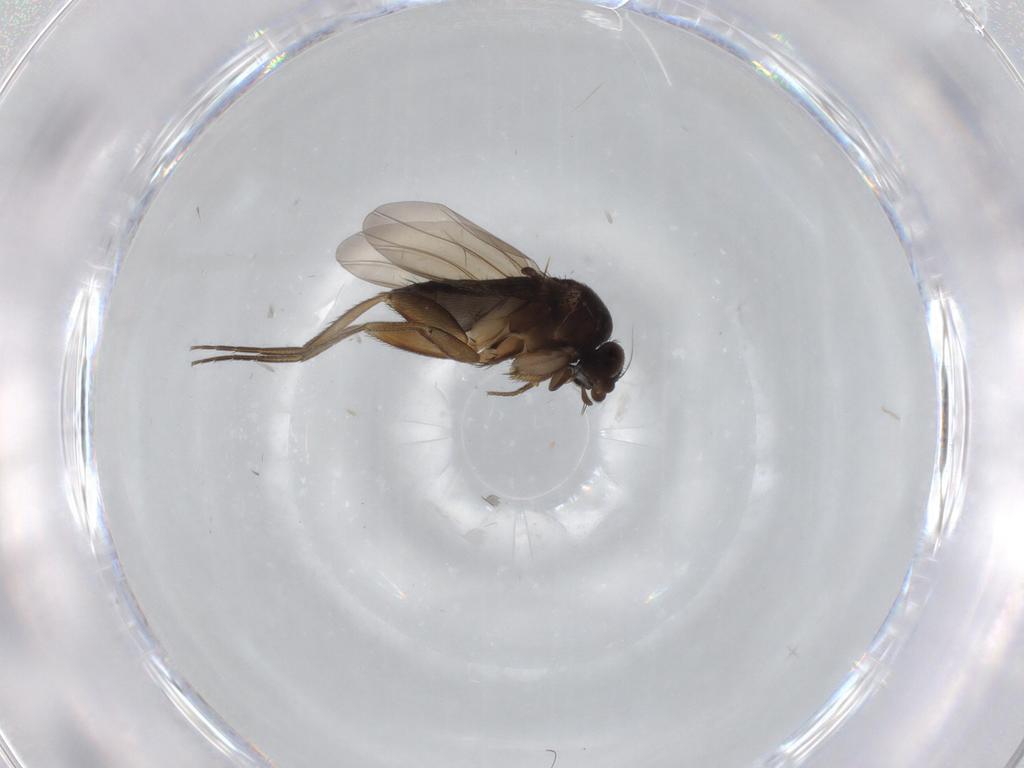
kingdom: Animalia
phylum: Arthropoda
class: Insecta
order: Diptera
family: Phoridae
